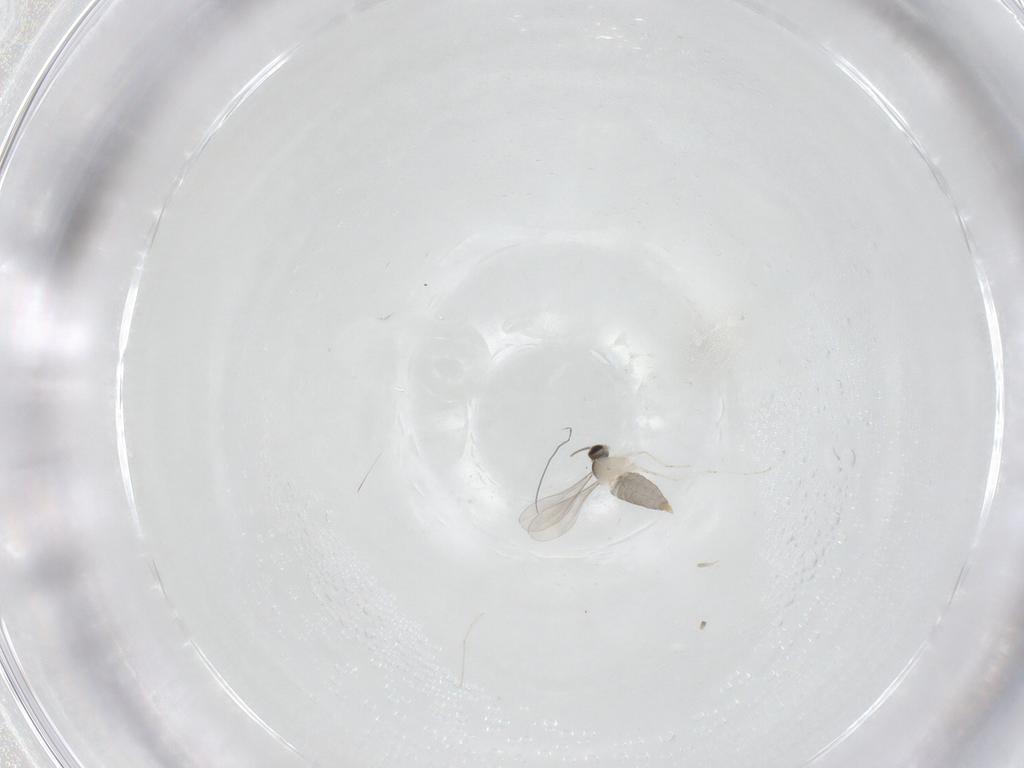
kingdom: Animalia
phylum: Arthropoda
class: Insecta
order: Diptera
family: Cecidomyiidae
